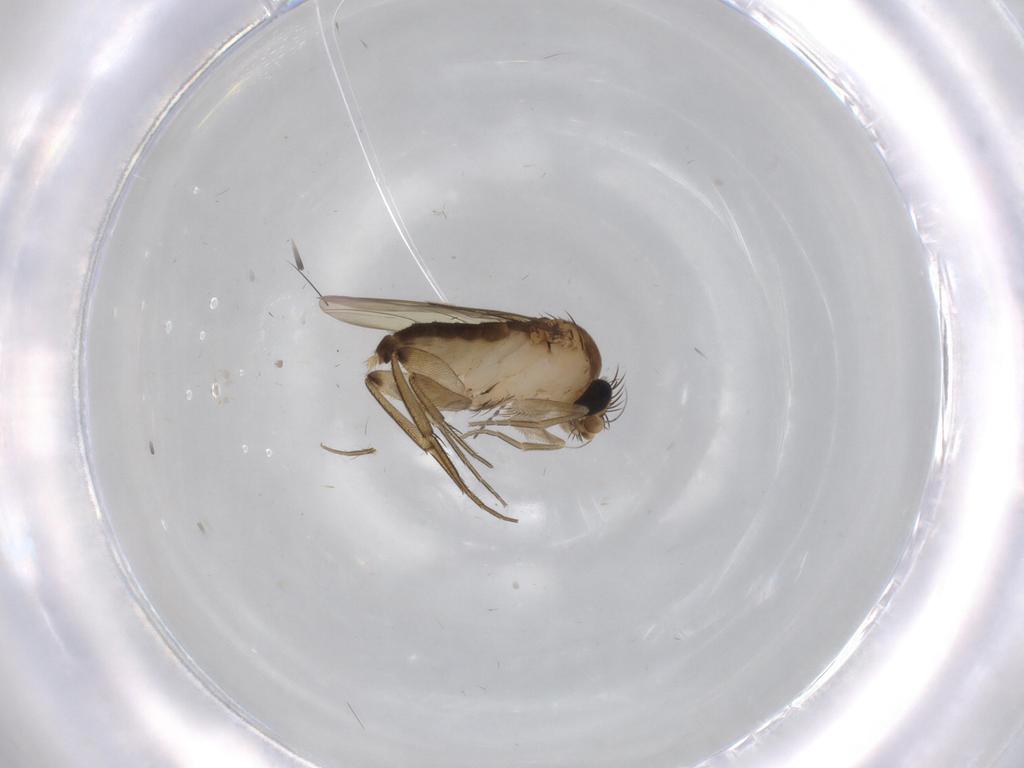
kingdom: Animalia
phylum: Arthropoda
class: Insecta
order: Diptera
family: Phoridae
